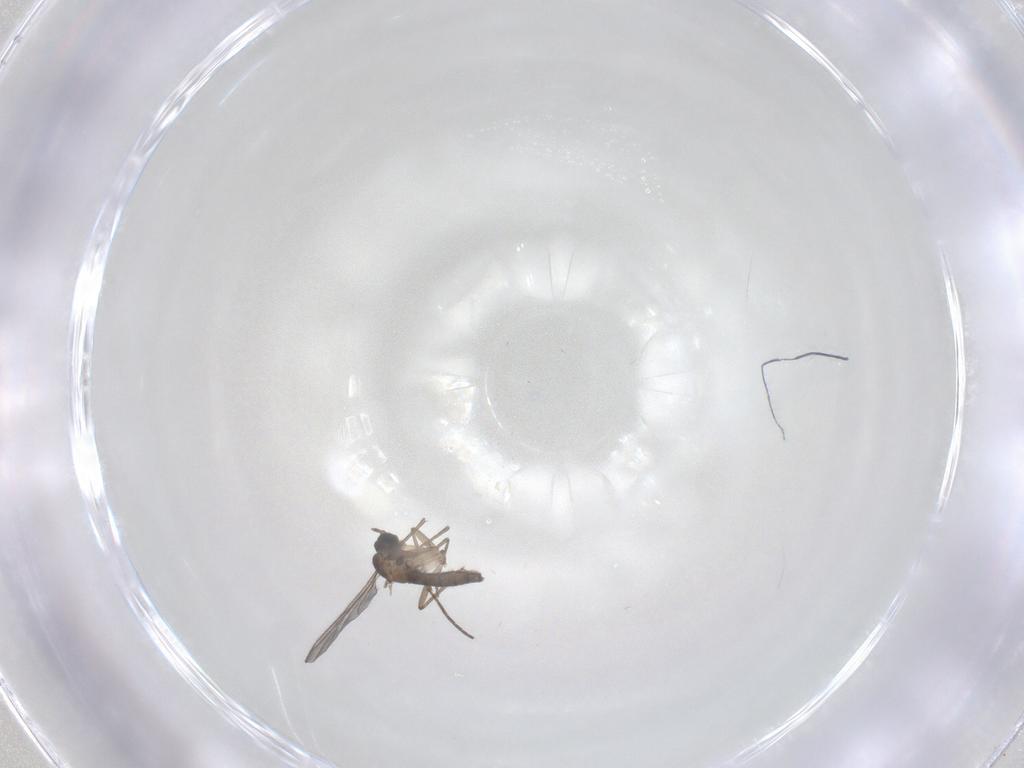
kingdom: Animalia
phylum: Arthropoda
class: Insecta
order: Diptera
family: Sciaridae
